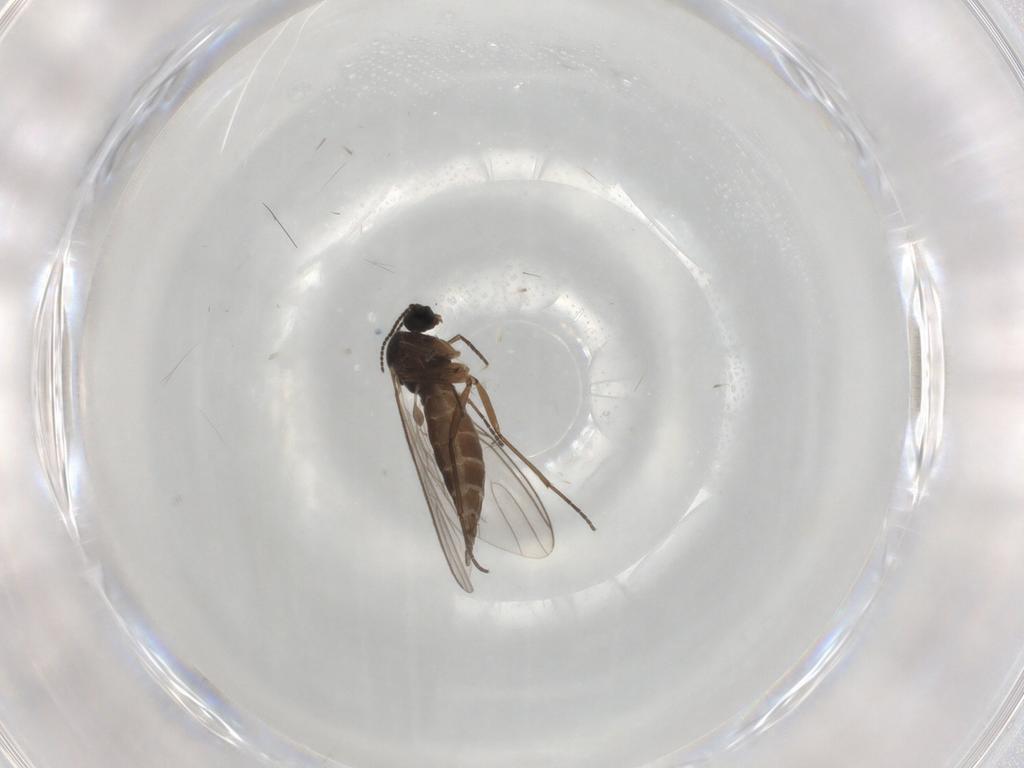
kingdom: Animalia
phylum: Arthropoda
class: Insecta
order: Diptera
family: Sciaridae
